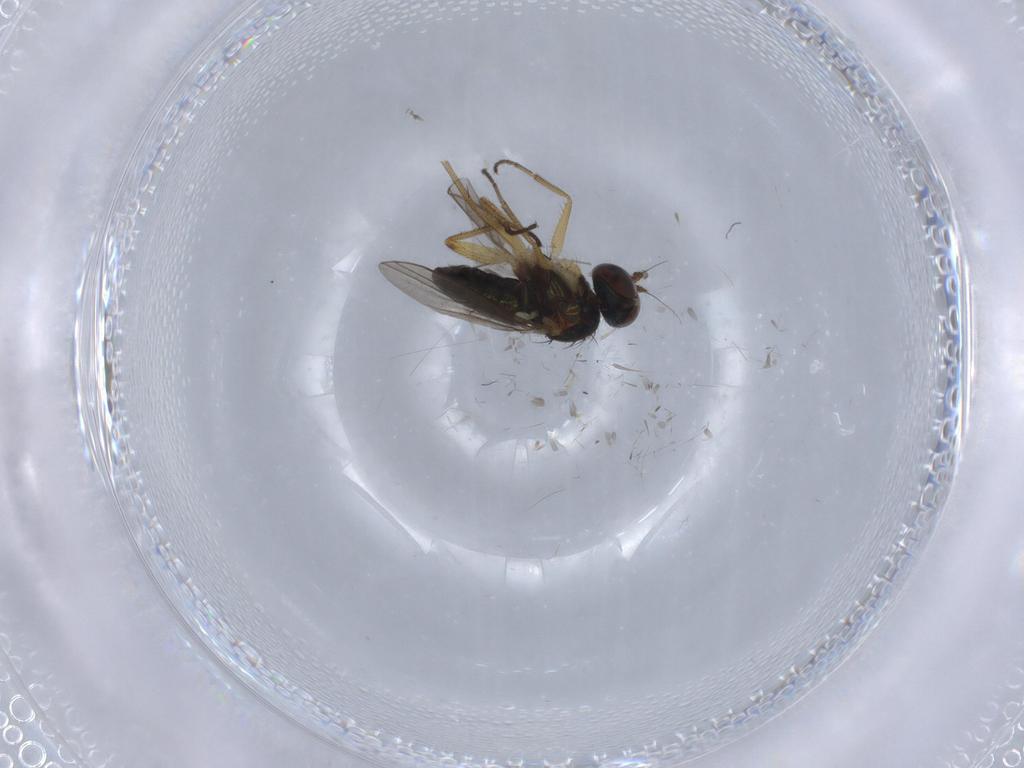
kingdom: Animalia
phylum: Arthropoda
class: Insecta
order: Diptera
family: Dolichopodidae
